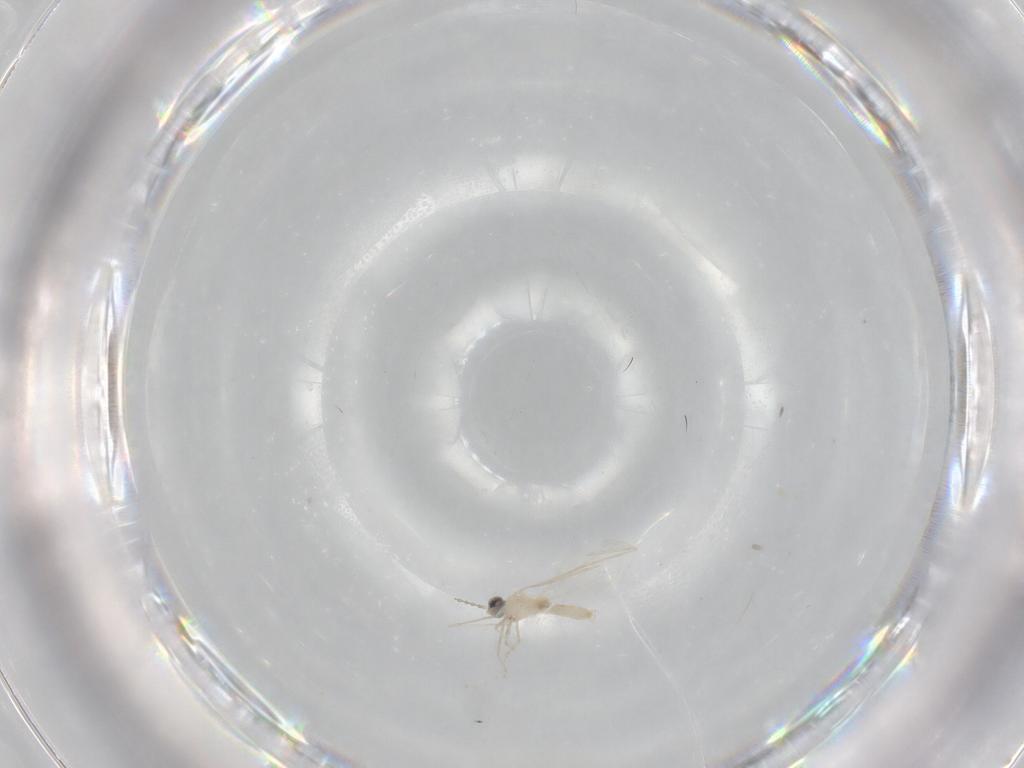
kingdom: Animalia
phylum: Arthropoda
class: Insecta
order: Diptera
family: Cecidomyiidae
